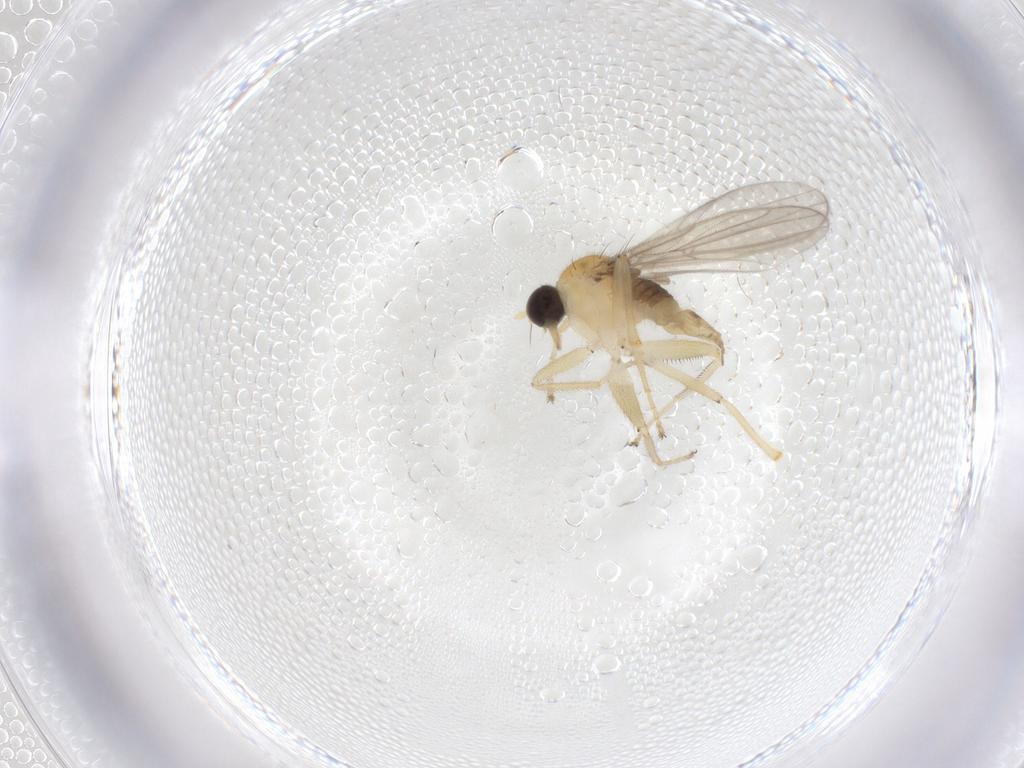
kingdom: Animalia
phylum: Arthropoda
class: Insecta
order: Diptera
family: Hybotidae
